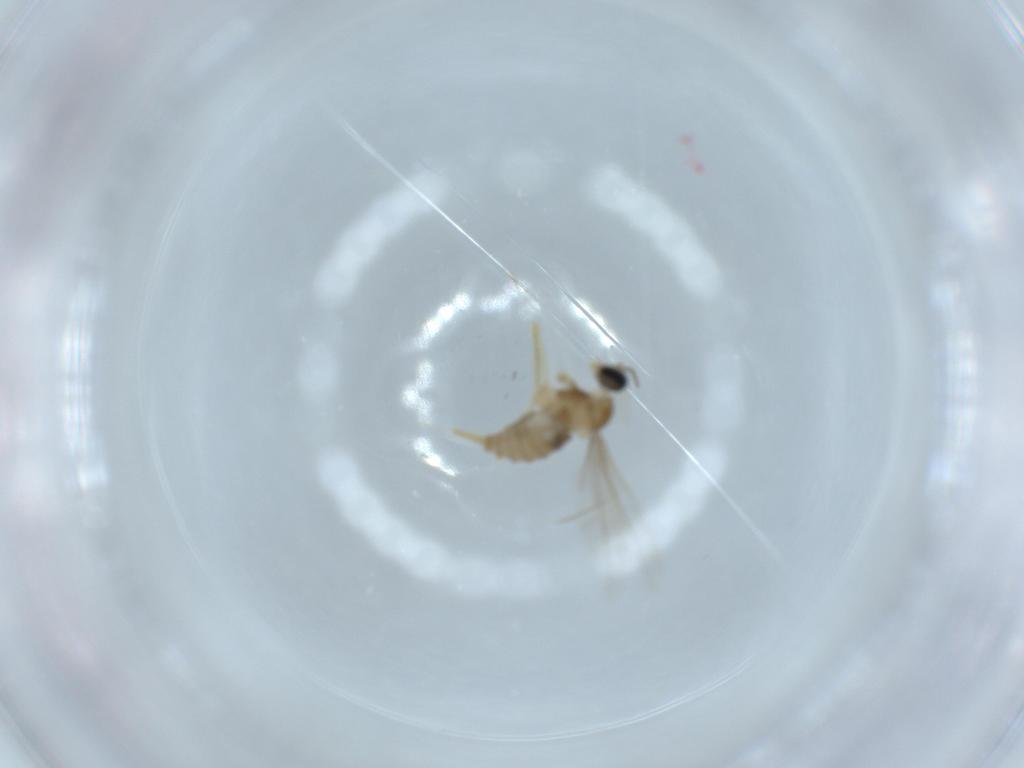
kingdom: Animalia
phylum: Arthropoda
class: Insecta
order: Diptera
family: Cecidomyiidae
